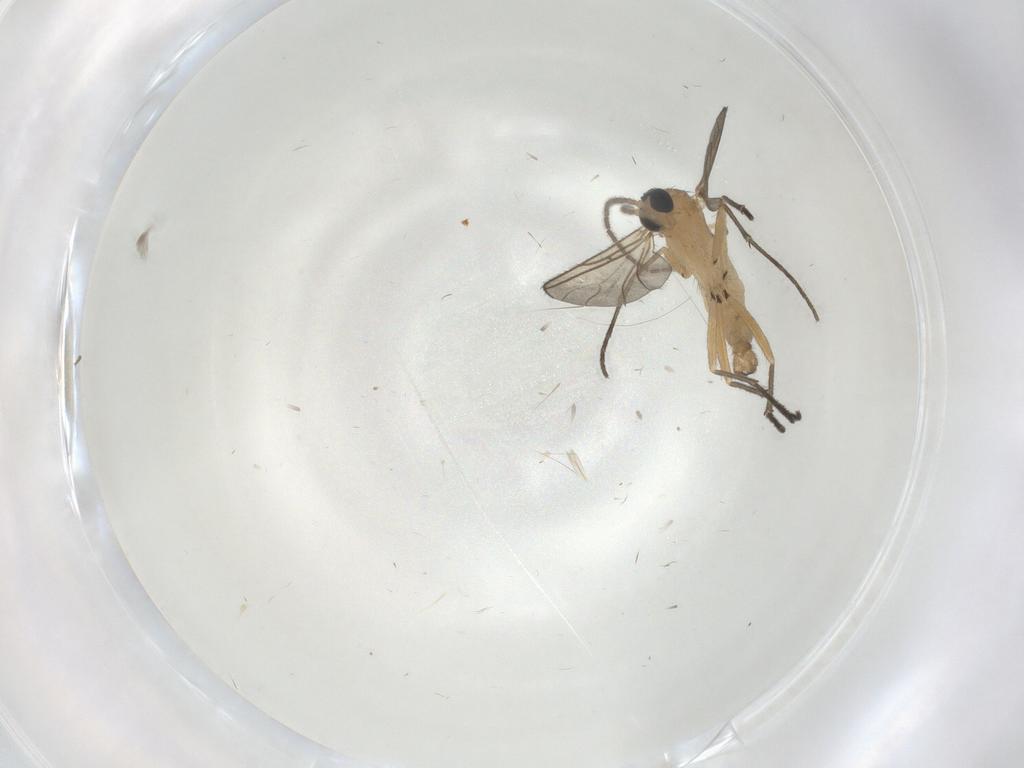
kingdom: Animalia
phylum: Arthropoda
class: Insecta
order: Diptera
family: Sciaridae
